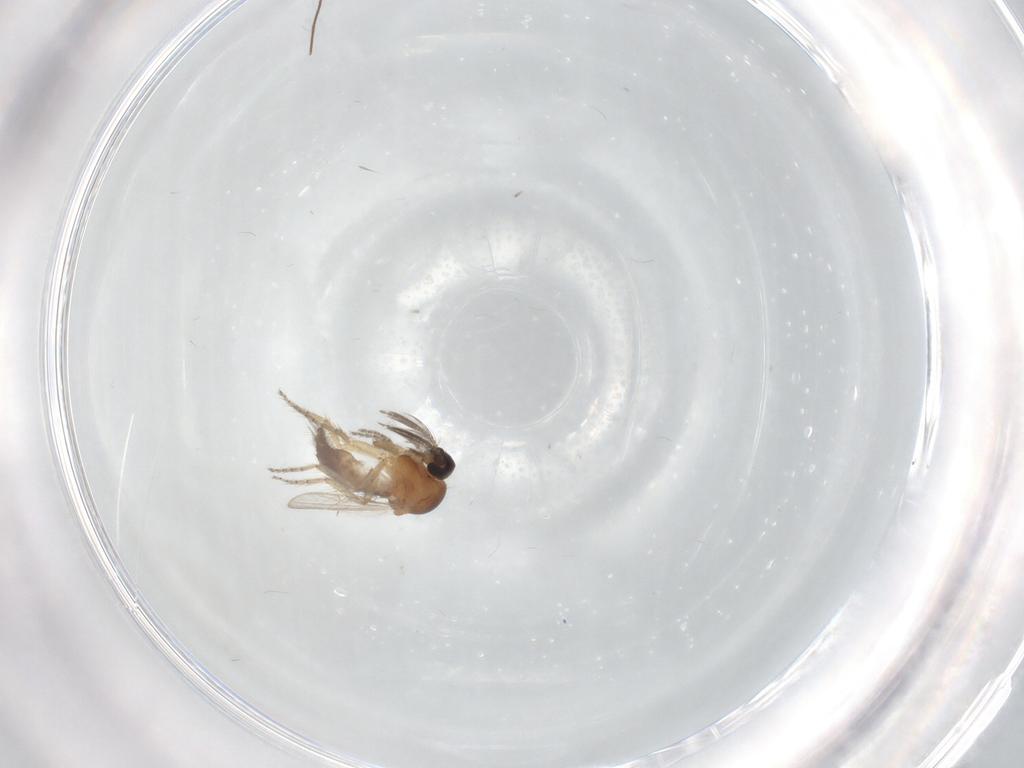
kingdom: Animalia
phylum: Arthropoda
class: Insecta
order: Diptera
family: Ceratopogonidae
